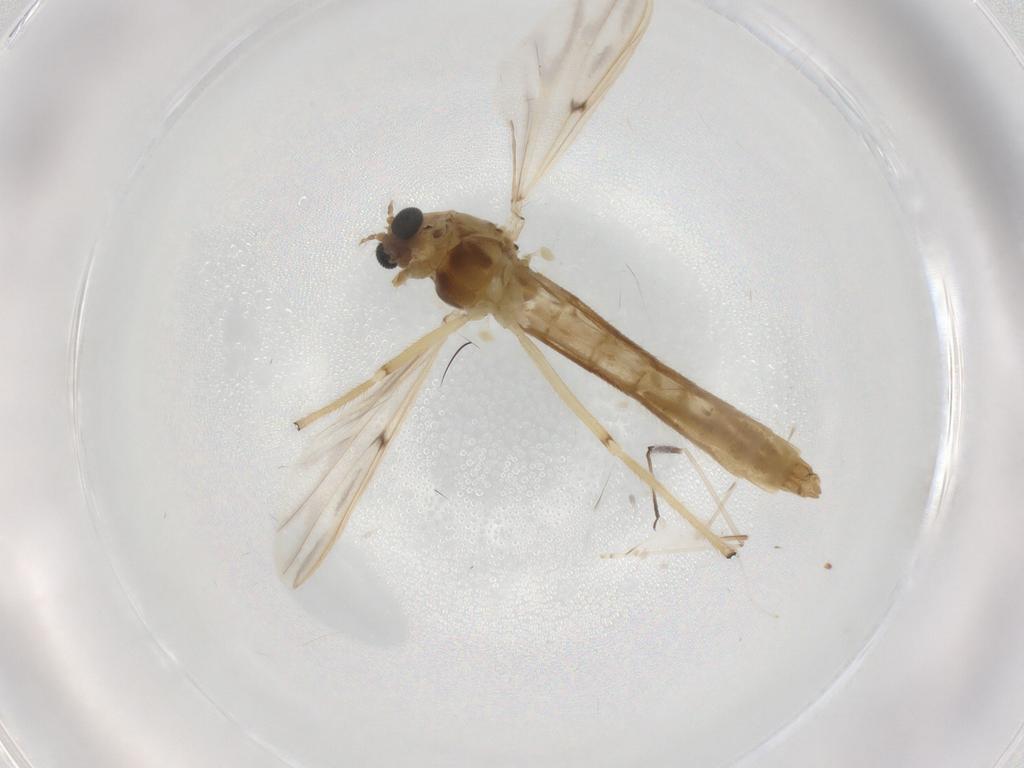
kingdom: Animalia
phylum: Arthropoda
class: Insecta
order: Diptera
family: Chironomidae
